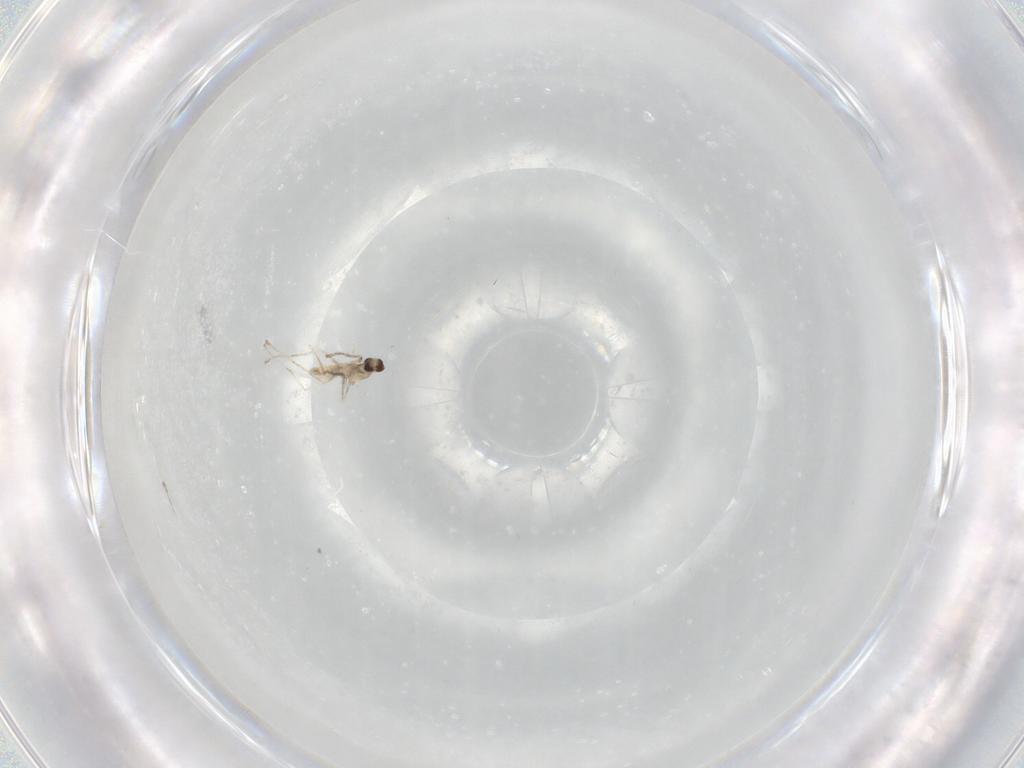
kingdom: Animalia
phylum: Arthropoda
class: Insecta
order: Diptera
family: Cecidomyiidae
